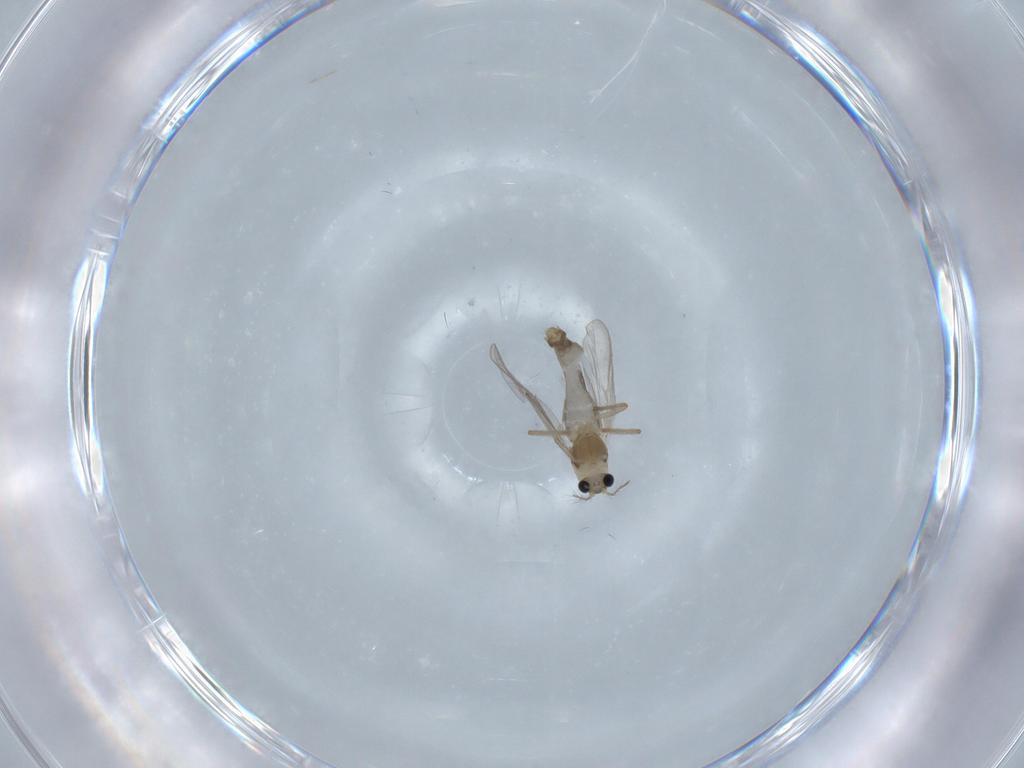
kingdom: Animalia
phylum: Arthropoda
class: Insecta
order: Diptera
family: Chironomidae
